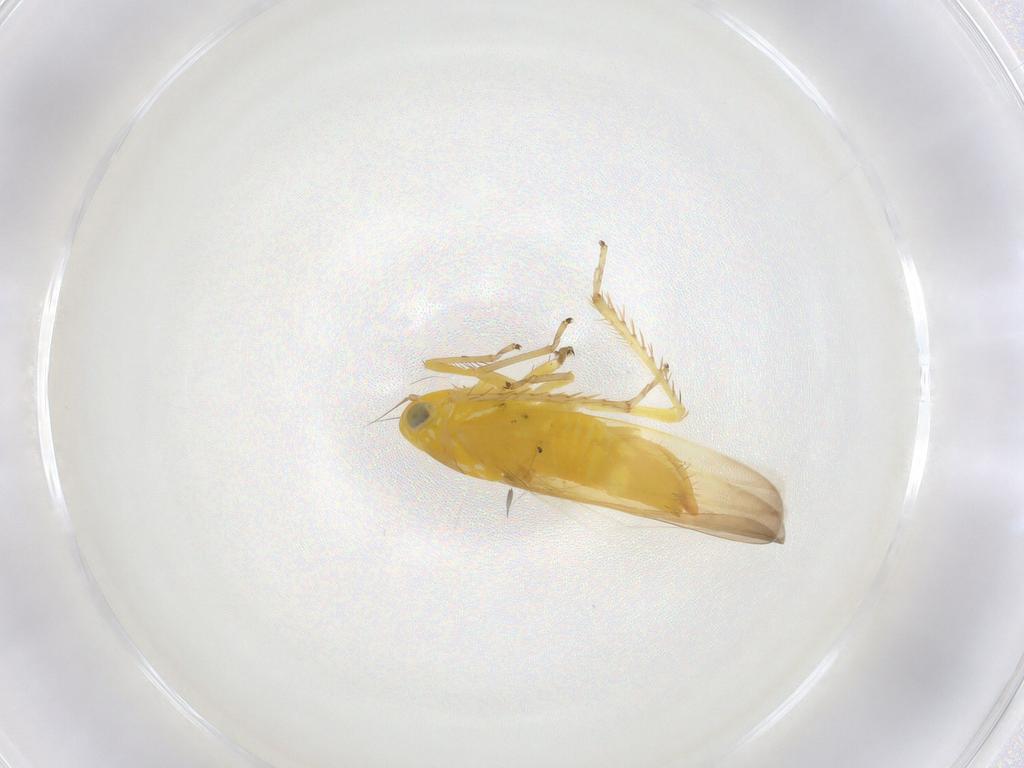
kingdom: Animalia
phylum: Arthropoda
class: Insecta
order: Hemiptera
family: Cicadellidae
